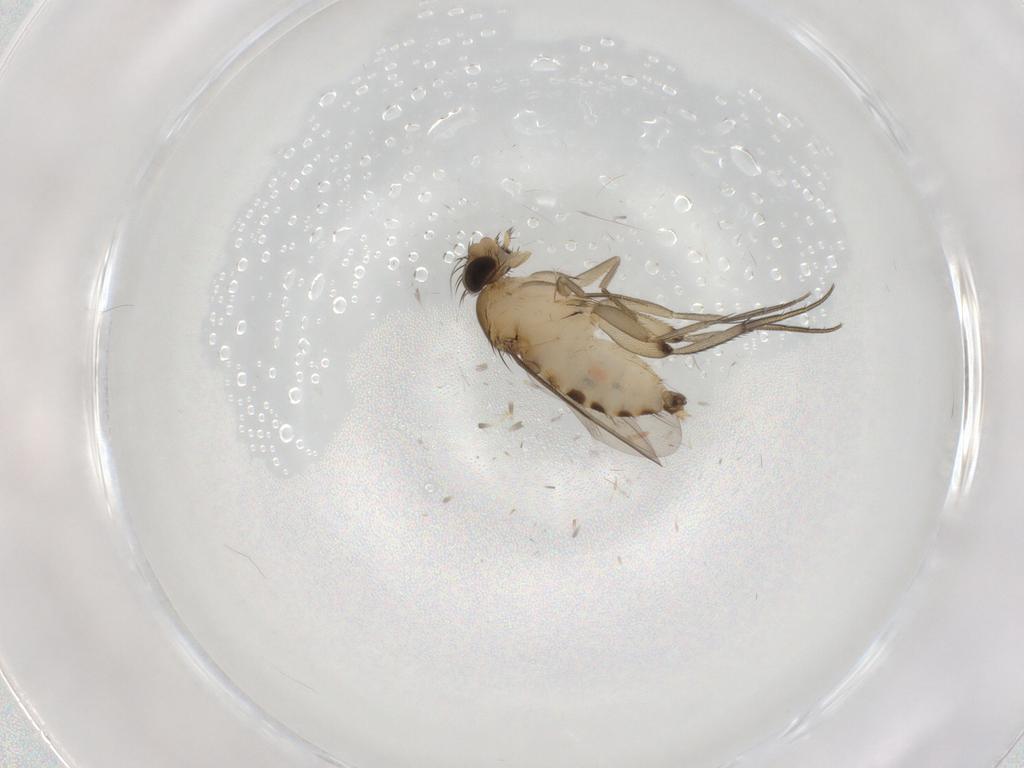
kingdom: Animalia
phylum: Arthropoda
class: Insecta
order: Diptera
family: Phoridae
